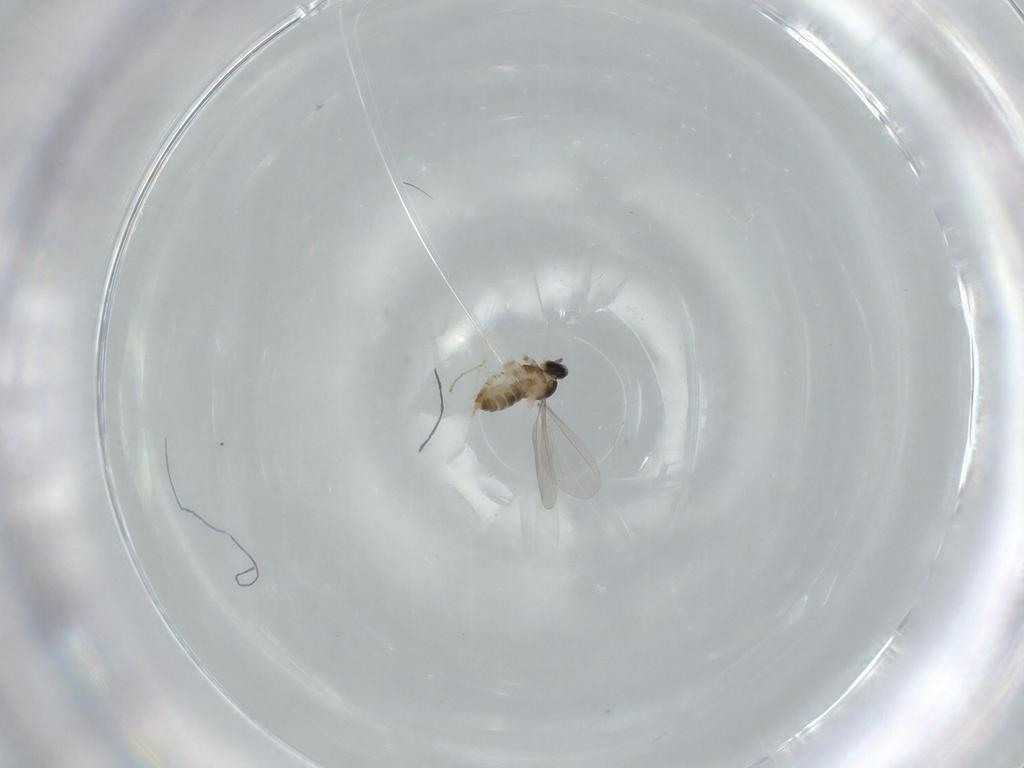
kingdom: Animalia
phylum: Arthropoda
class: Insecta
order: Diptera
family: Cecidomyiidae
